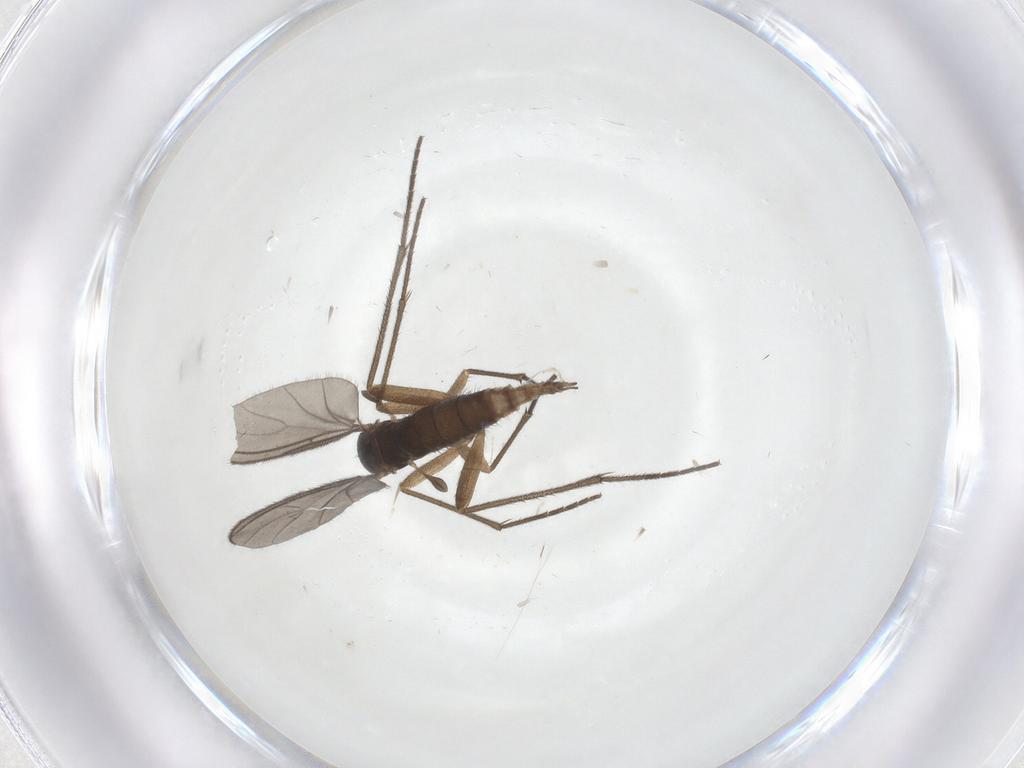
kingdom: Animalia
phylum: Arthropoda
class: Insecta
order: Diptera
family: Sciaridae
